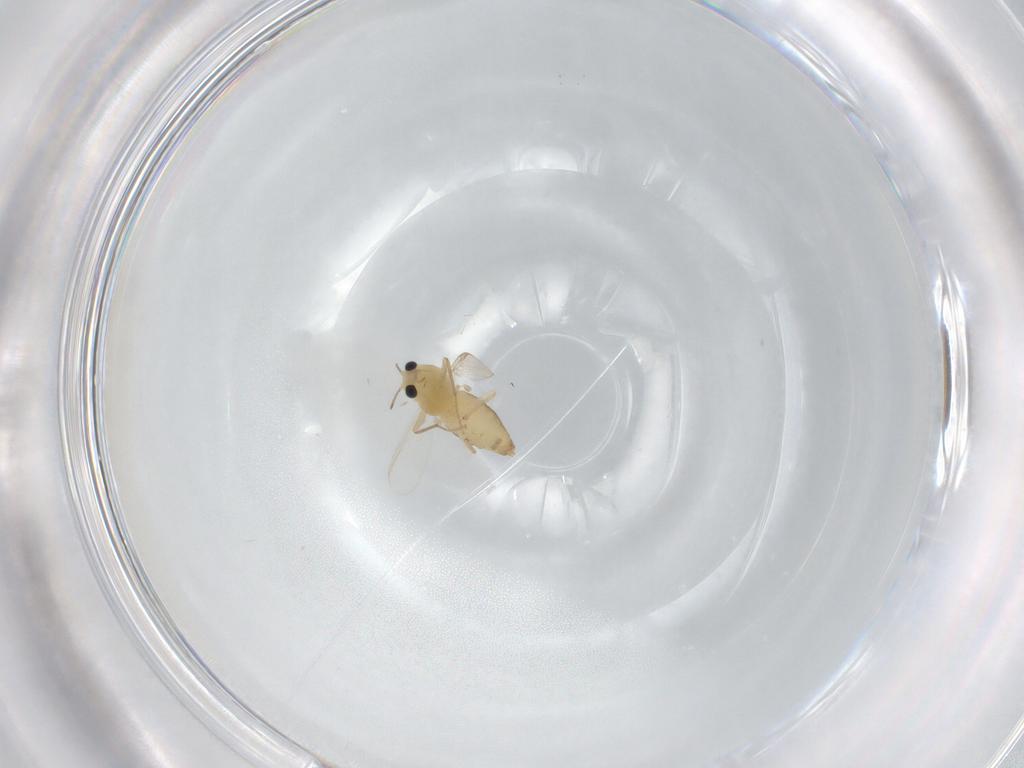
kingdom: Animalia
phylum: Arthropoda
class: Insecta
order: Diptera
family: Chironomidae
